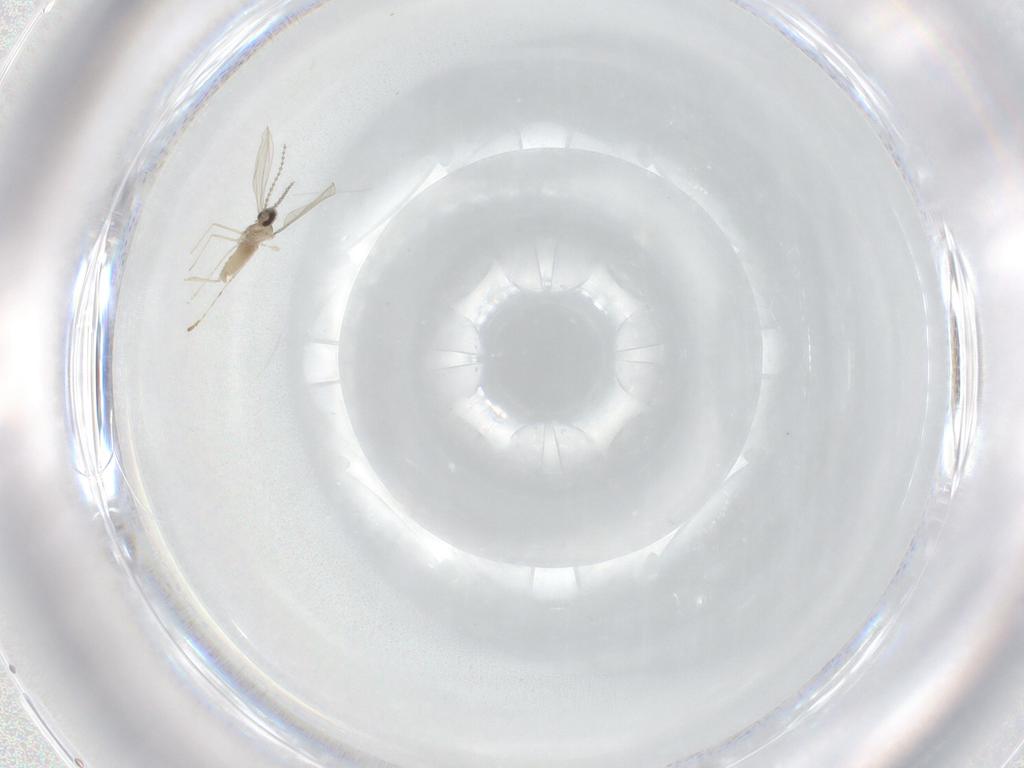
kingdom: Animalia
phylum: Arthropoda
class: Insecta
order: Diptera
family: Cecidomyiidae
